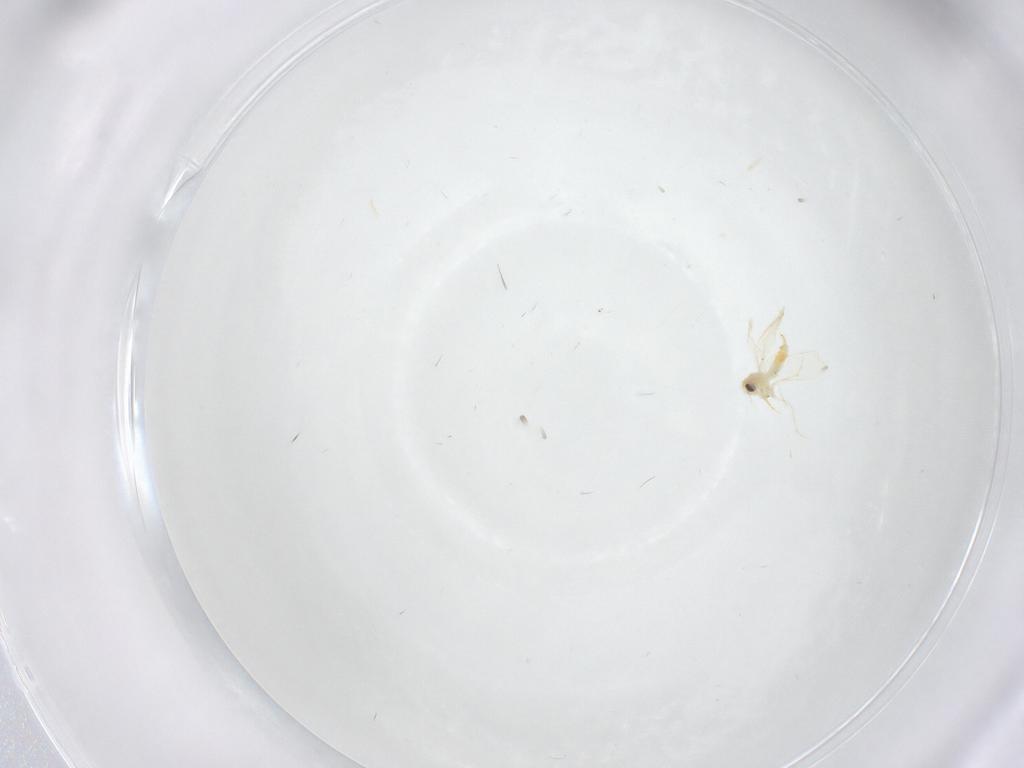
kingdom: Animalia
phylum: Arthropoda
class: Insecta
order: Hemiptera
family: Aleyrodidae
